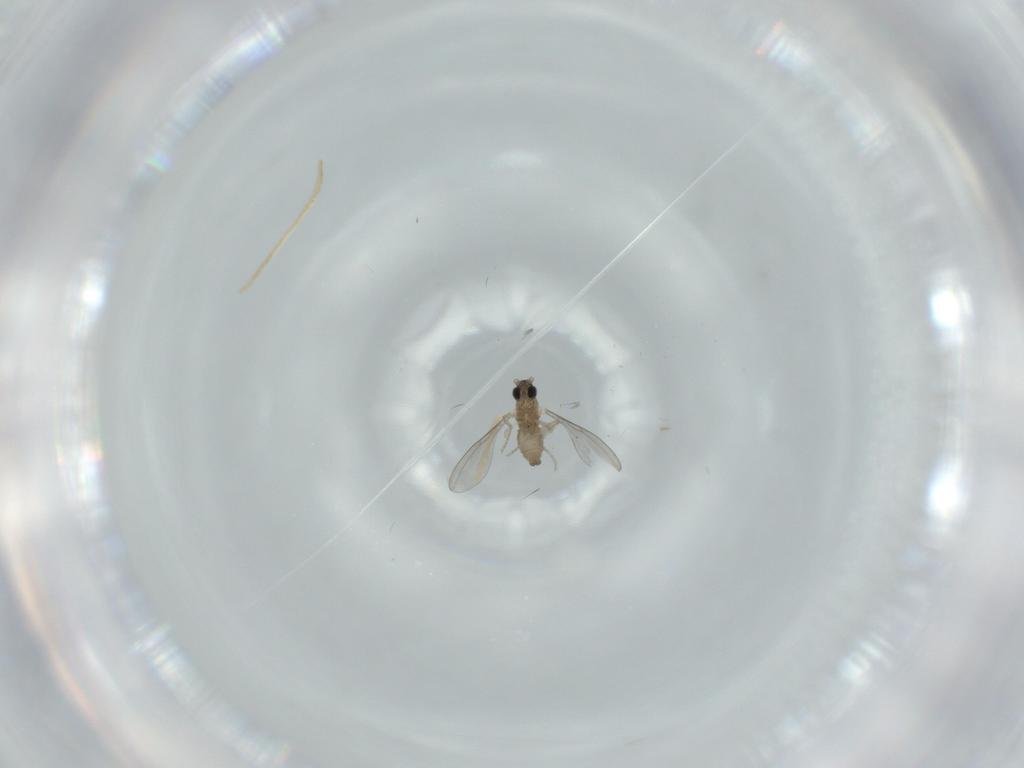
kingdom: Animalia
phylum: Arthropoda
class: Insecta
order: Diptera
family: Cecidomyiidae
